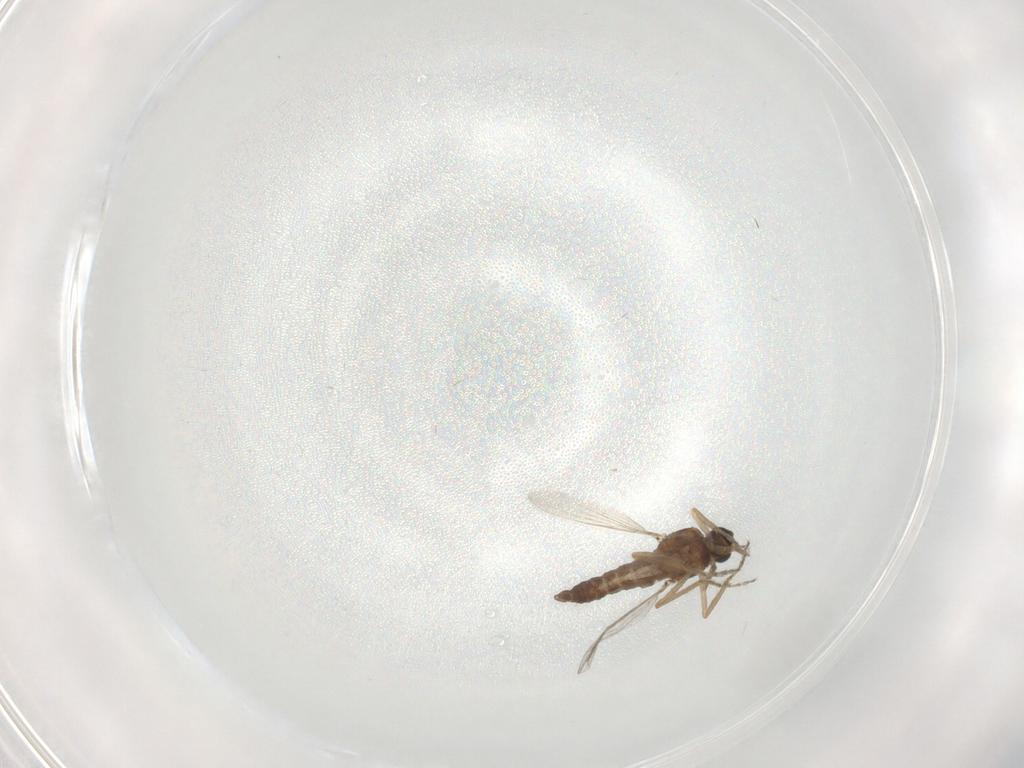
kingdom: Animalia
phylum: Arthropoda
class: Insecta
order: Diptera
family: Ceratopogonidae
